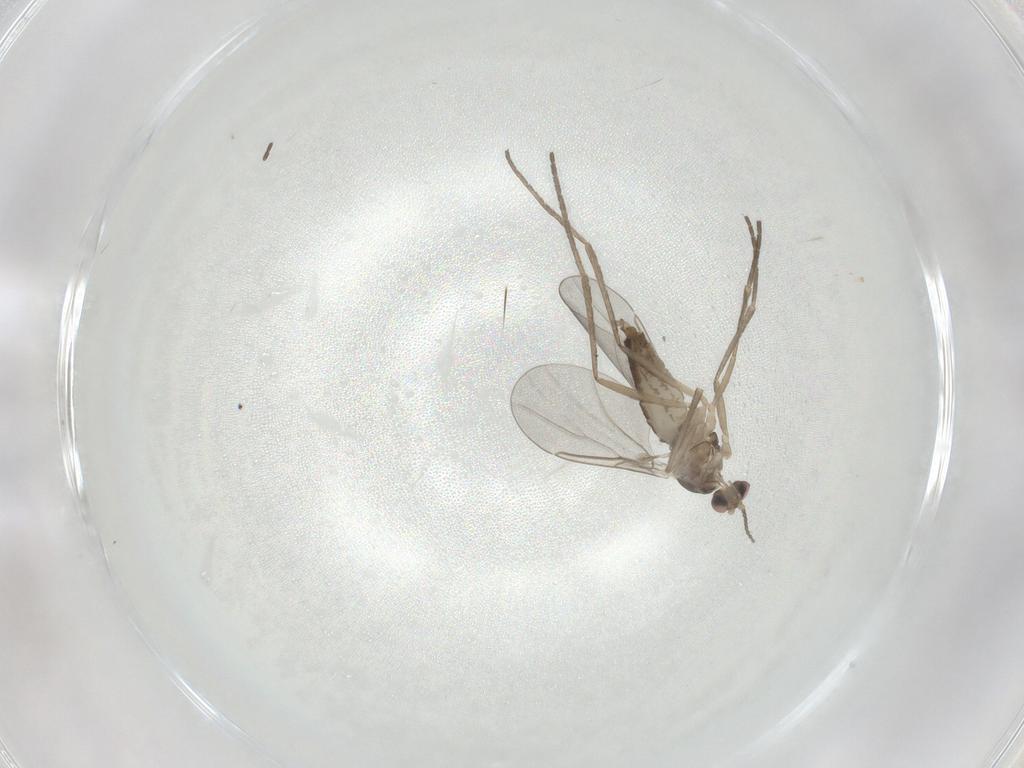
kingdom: Animalia
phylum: Arthropoda
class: Insecta
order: Diptera
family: Cecidomyiidae
